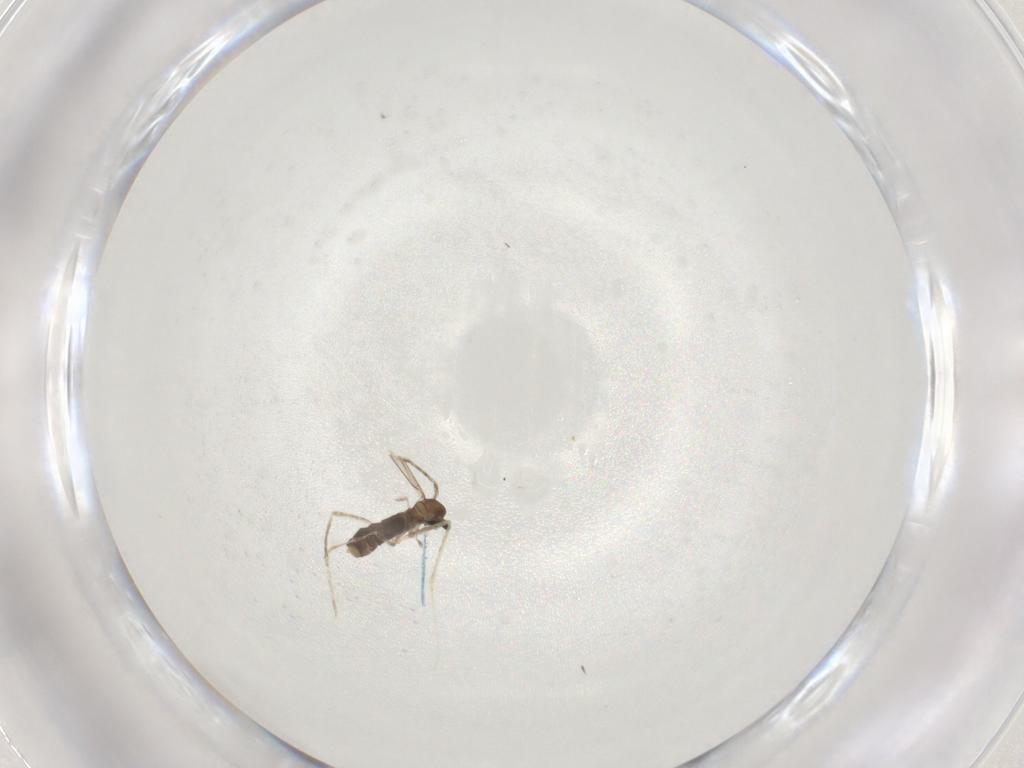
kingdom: Animalia
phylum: Arthropoda
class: Insecta
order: Diptera
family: Cecidomyiidae
